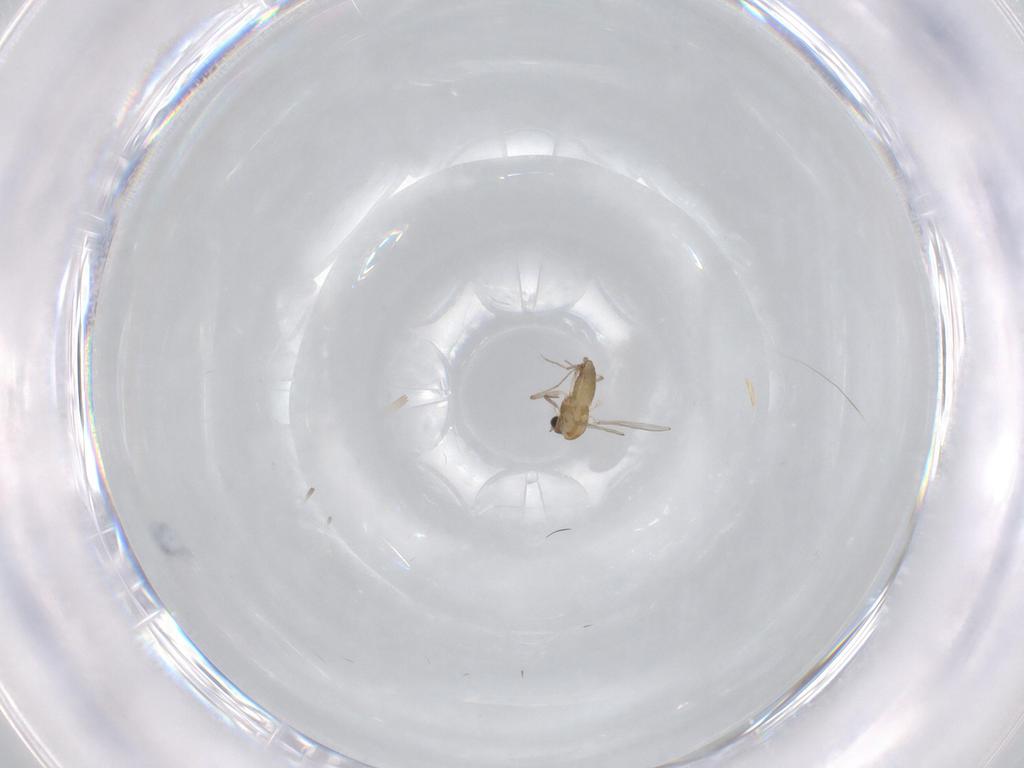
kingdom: Animalia
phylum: Arthropoda
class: Insecta
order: Diptera
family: Chironomidae
